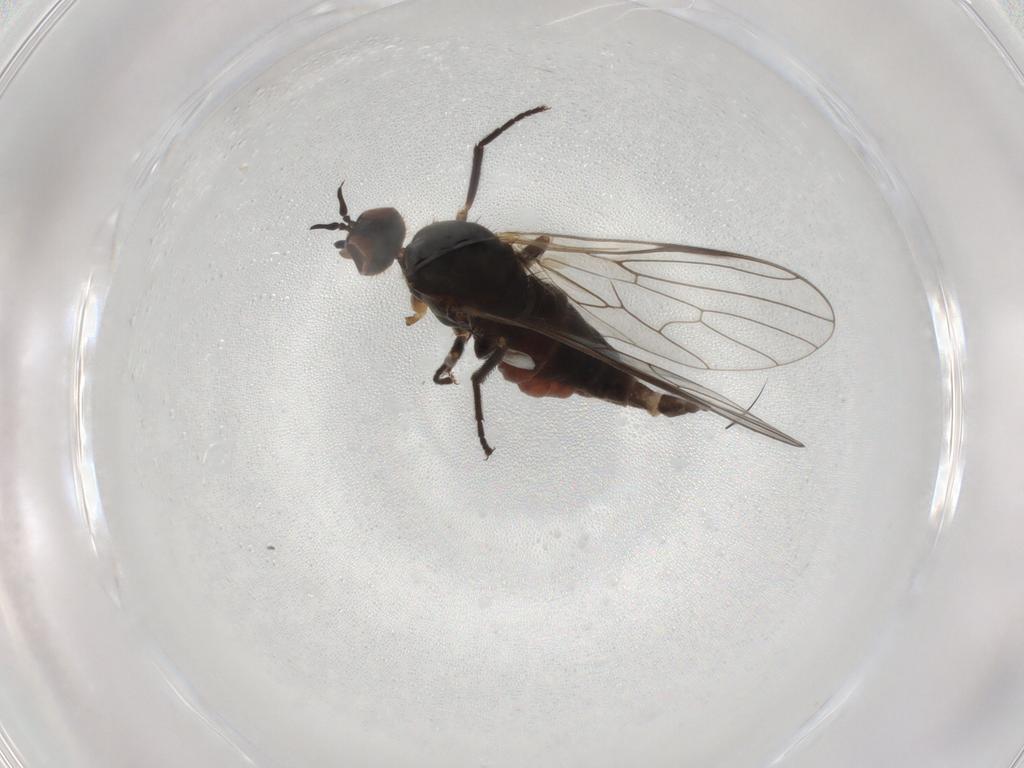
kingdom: Animalia
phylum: Arthropoda
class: Insecta
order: Diptera
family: Empididae
